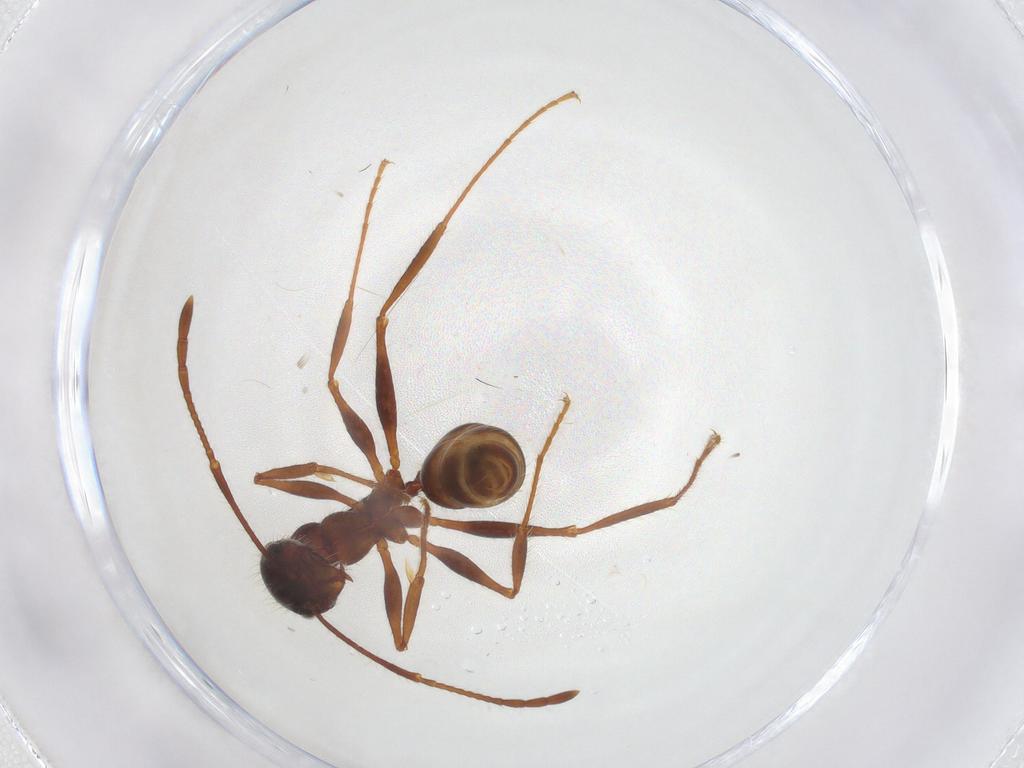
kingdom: Animalia
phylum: Arthropoda
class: Insecta
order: Hymenoptera
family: Formicidae
